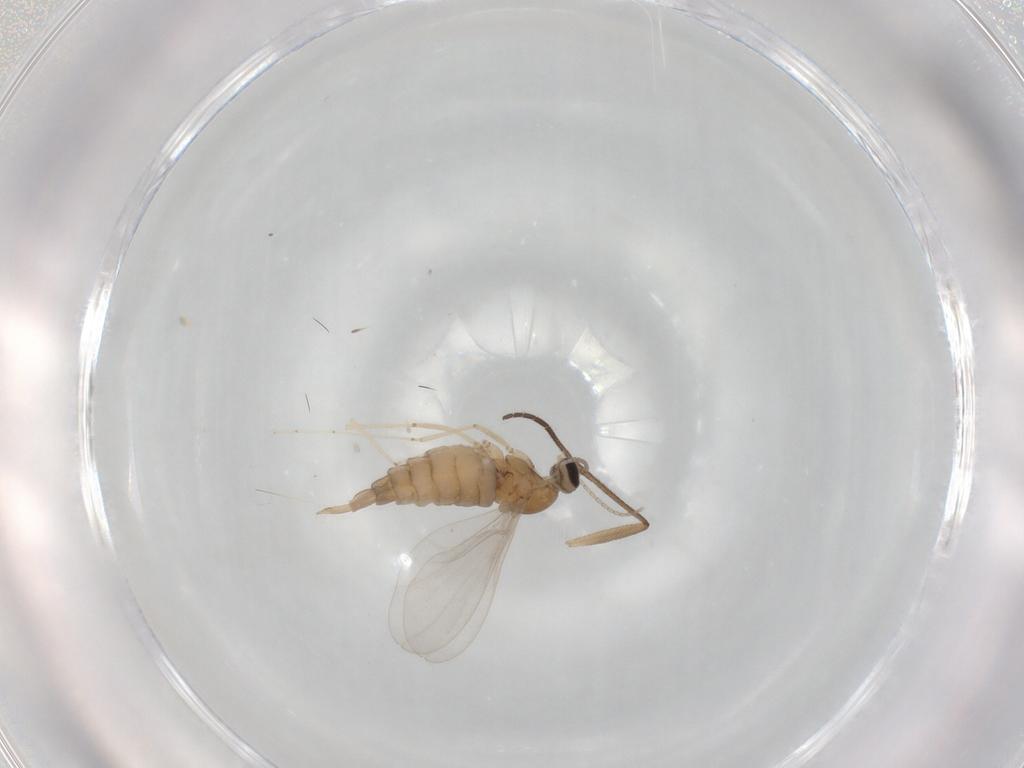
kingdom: Animalia
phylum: Arthropoda
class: Insecta
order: Diptera
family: Cecidomyiidae
